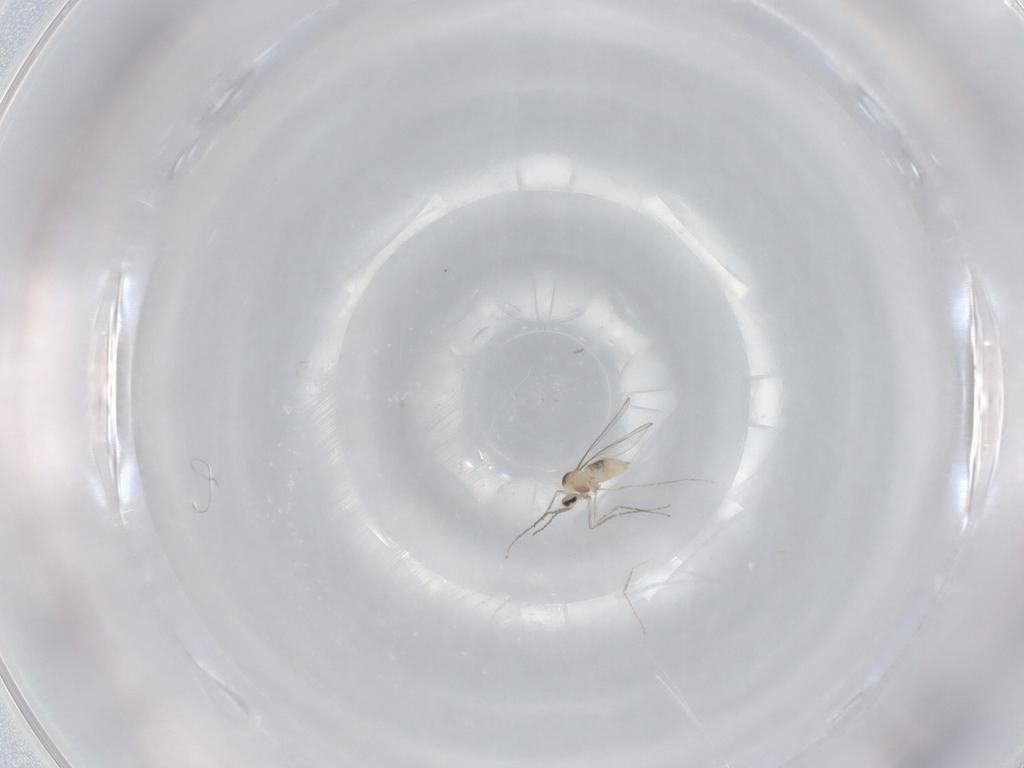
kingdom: Animalia
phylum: Arthropoda
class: Insecta
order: Diptera
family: Cecidomyiidae
